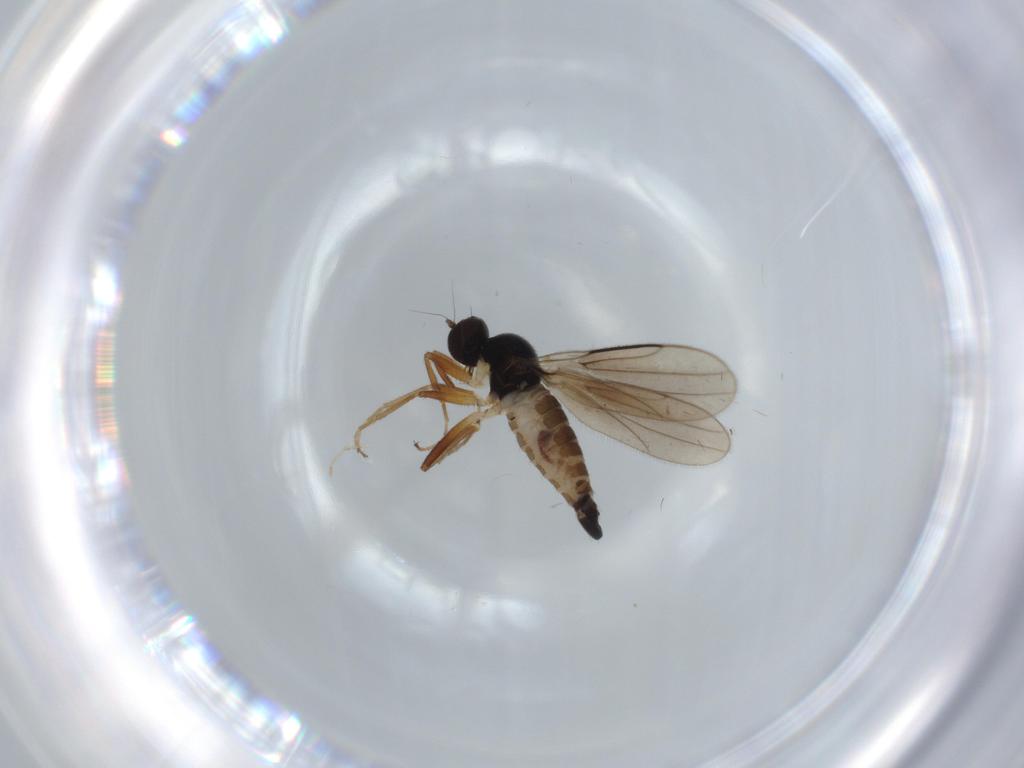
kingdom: Animalia
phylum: Arthropoda
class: Insecta
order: Diptera
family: Hybotidae
